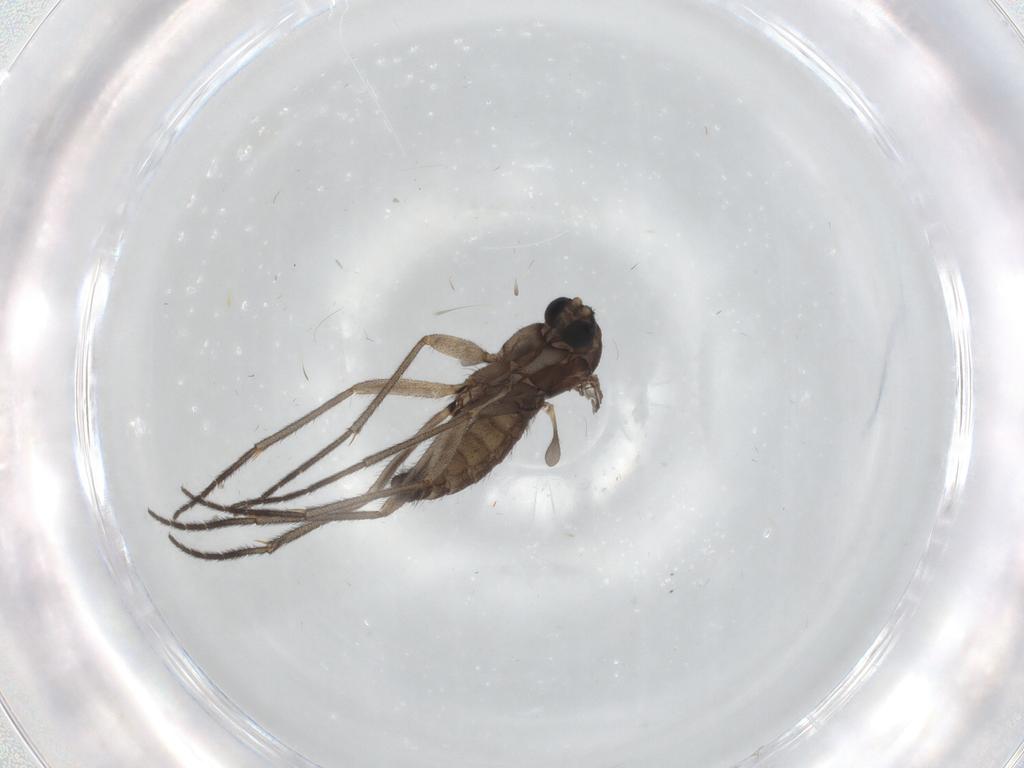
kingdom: Animalia
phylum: Arthropoda
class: Insecta
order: Diptera
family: Sciaridae
